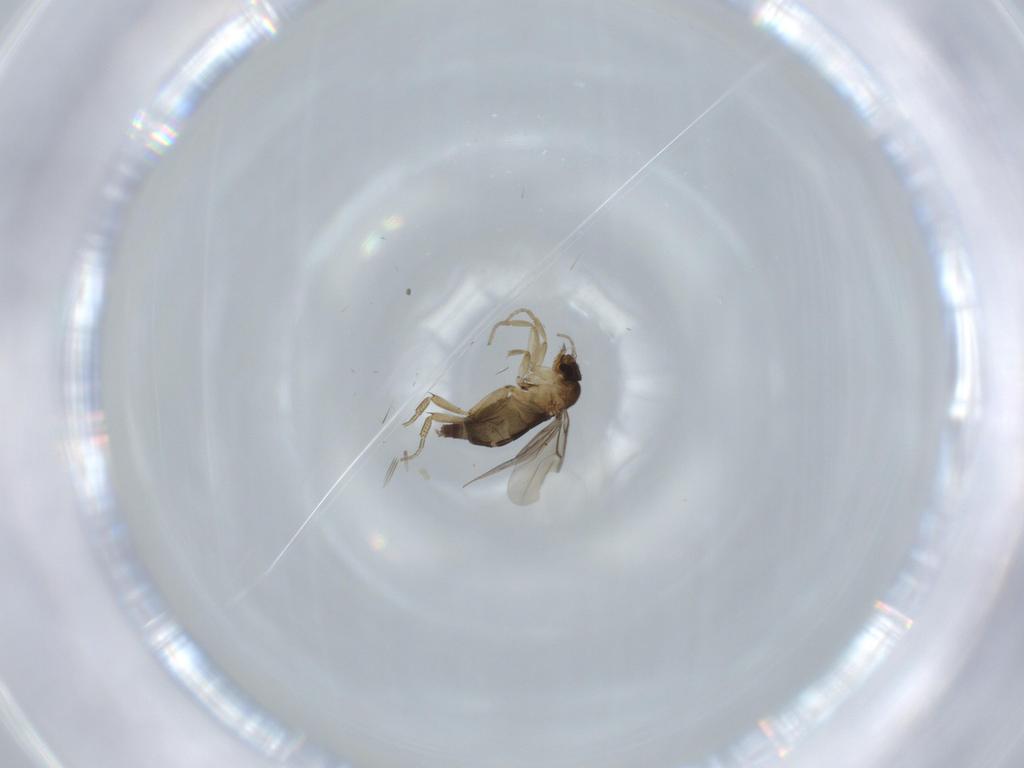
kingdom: Animalia
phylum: Arthropoda
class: Insecta
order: Diptera
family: Phoridae
